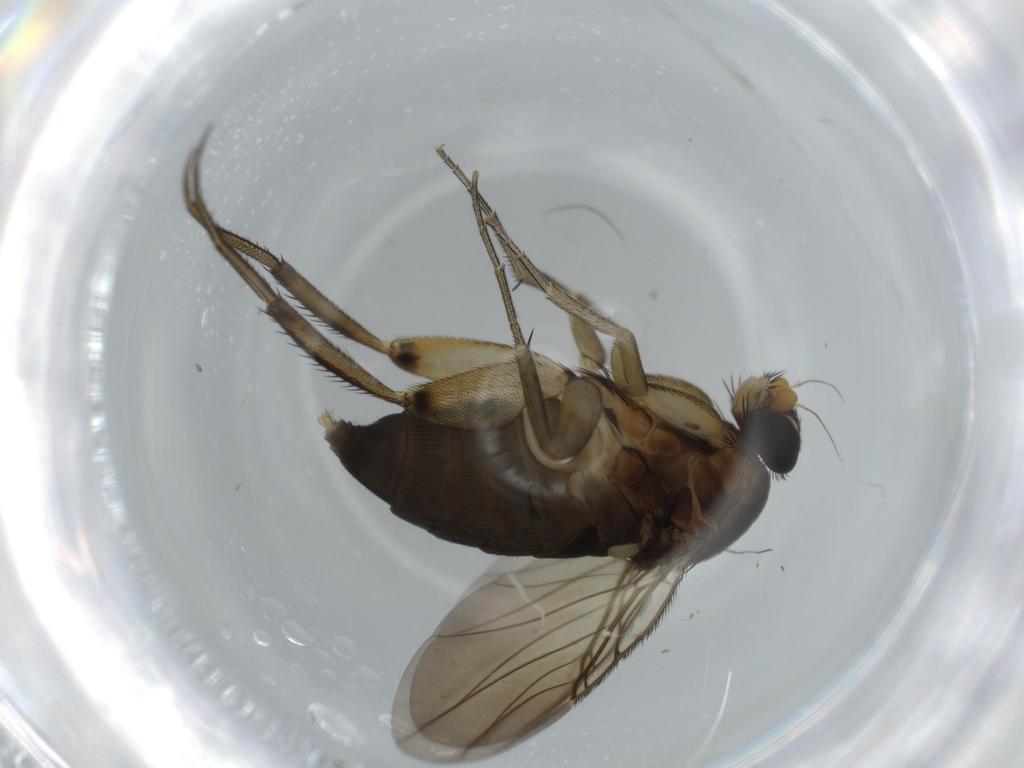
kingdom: Animalia
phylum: Arthropoda
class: Insecta
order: Diptera
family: Phoridae
